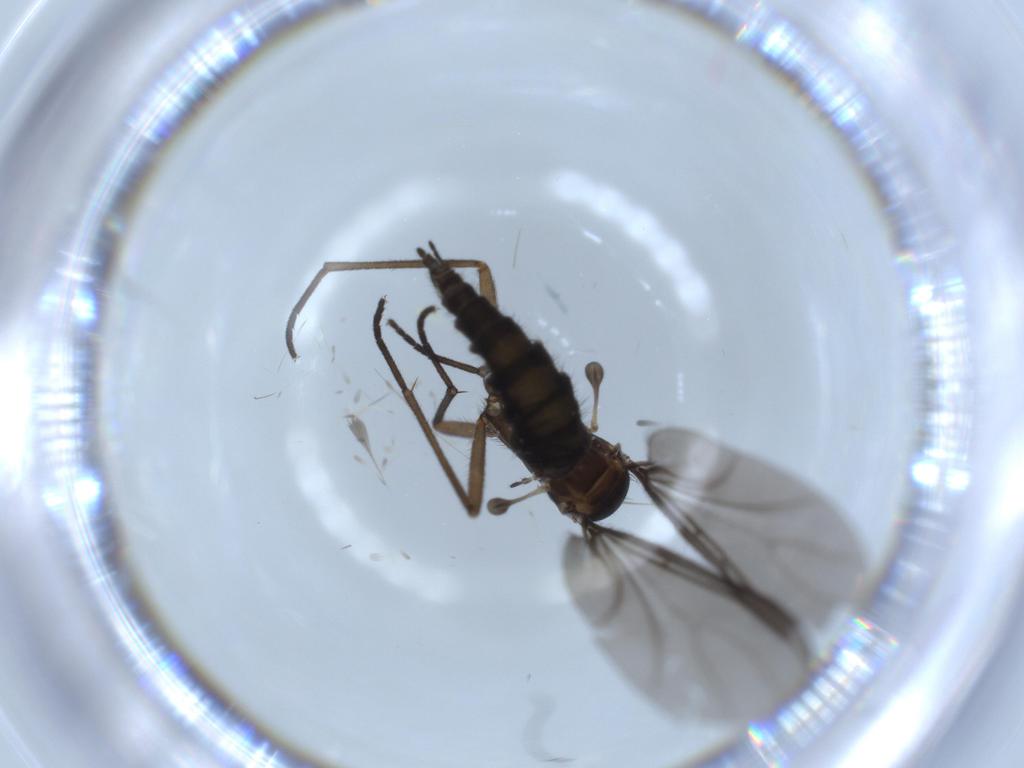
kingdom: Animalia
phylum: Arthropoda
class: Insecta
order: Diptera
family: Sciaridae
